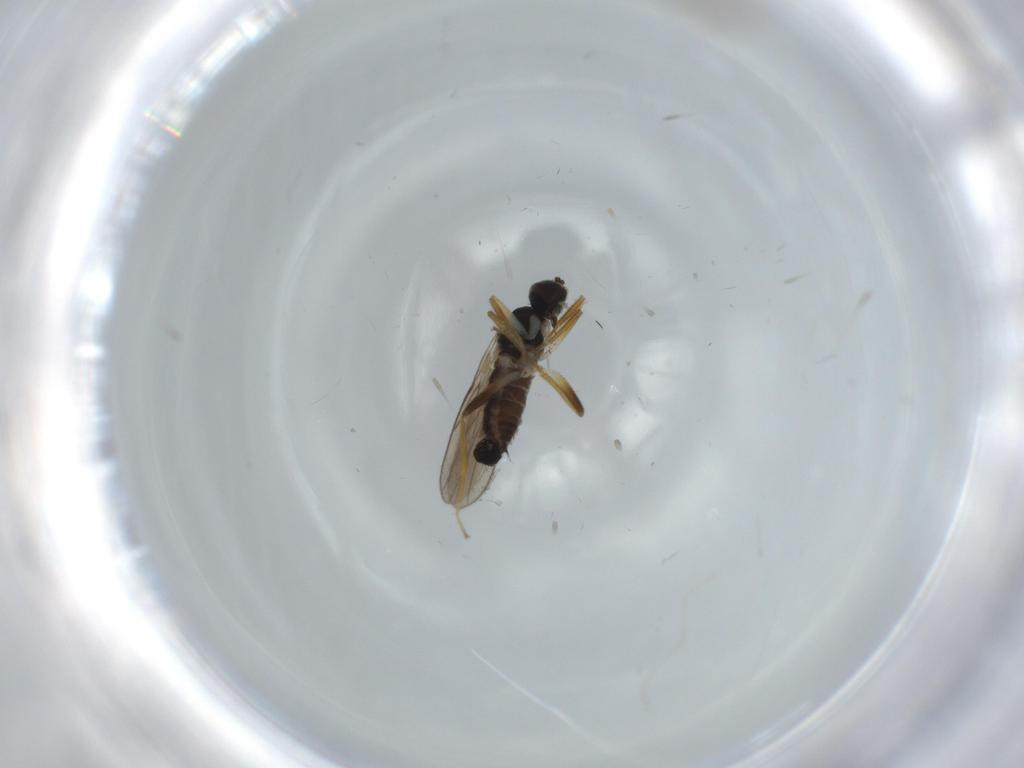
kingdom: Animalia
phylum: Arthropoda
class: Insecta
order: Diptera
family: Hybotidae
